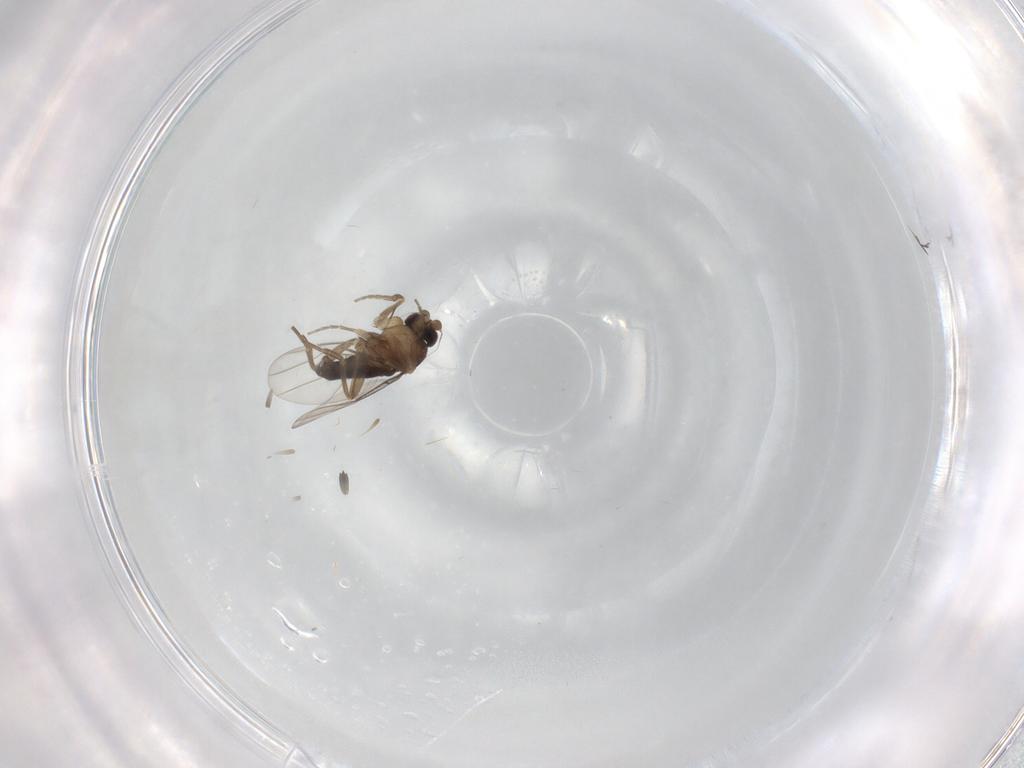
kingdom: Animalia
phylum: Arthropoda
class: Insecta
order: Diptera
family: Phoridae
